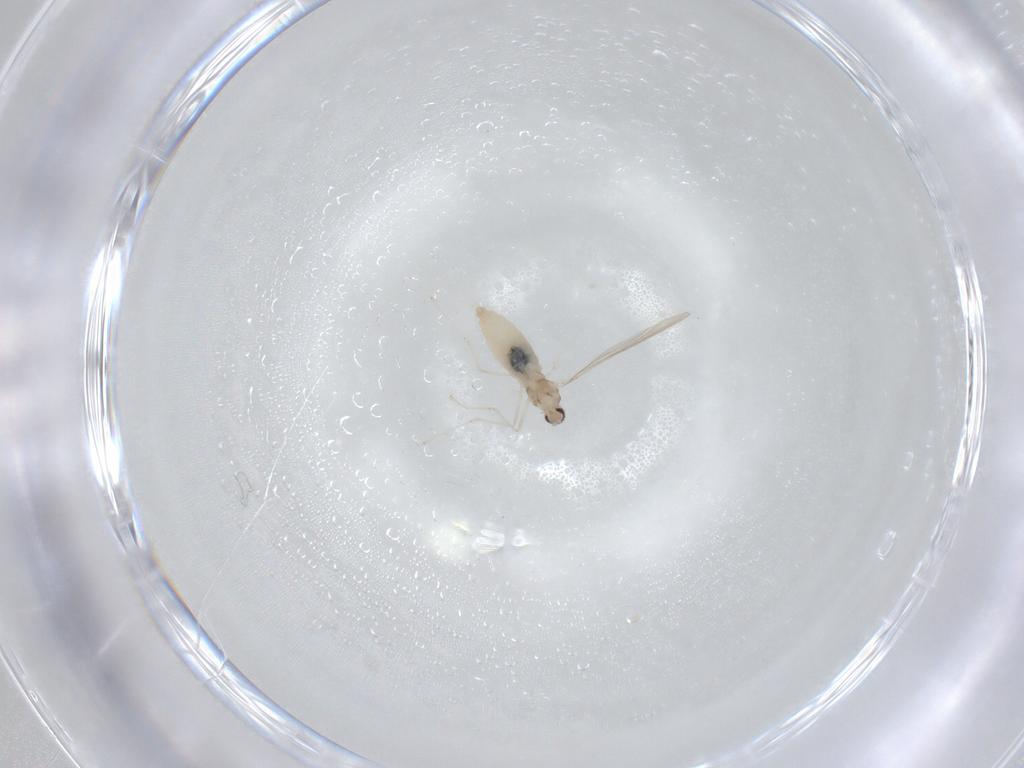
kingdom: Animalia
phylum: Arthropoda
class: Insecta
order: Diptera
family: Cecidomyiidae
